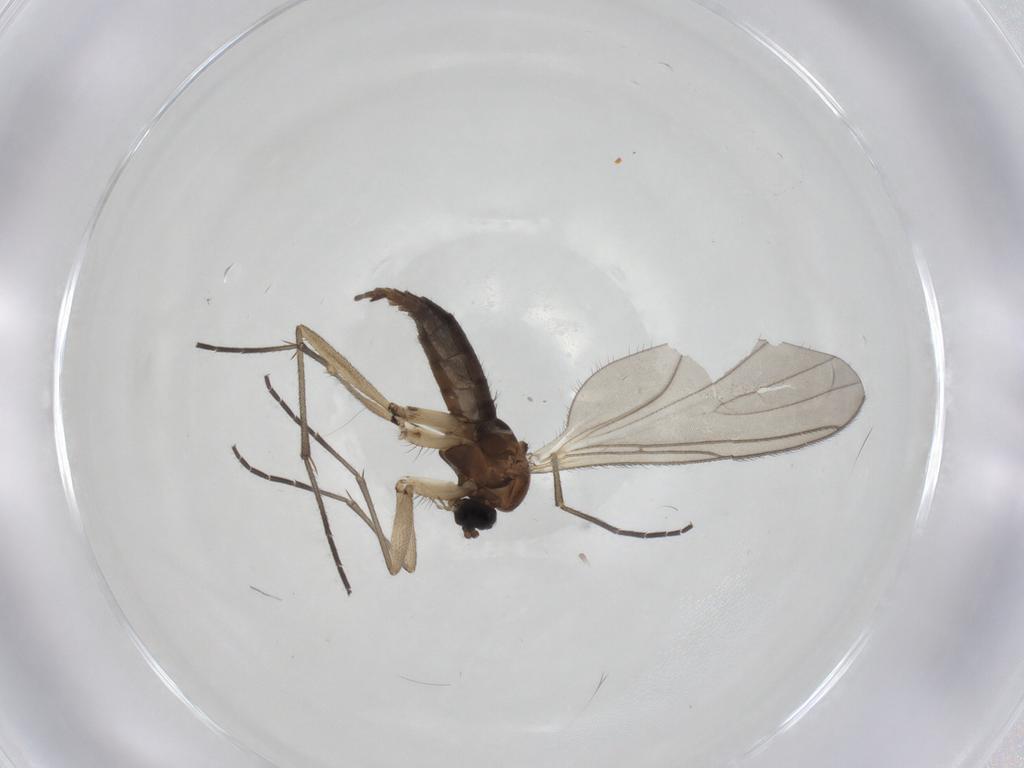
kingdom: Animalia
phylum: Arthropoda
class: Insecta
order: Diptera
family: Sciaridae
